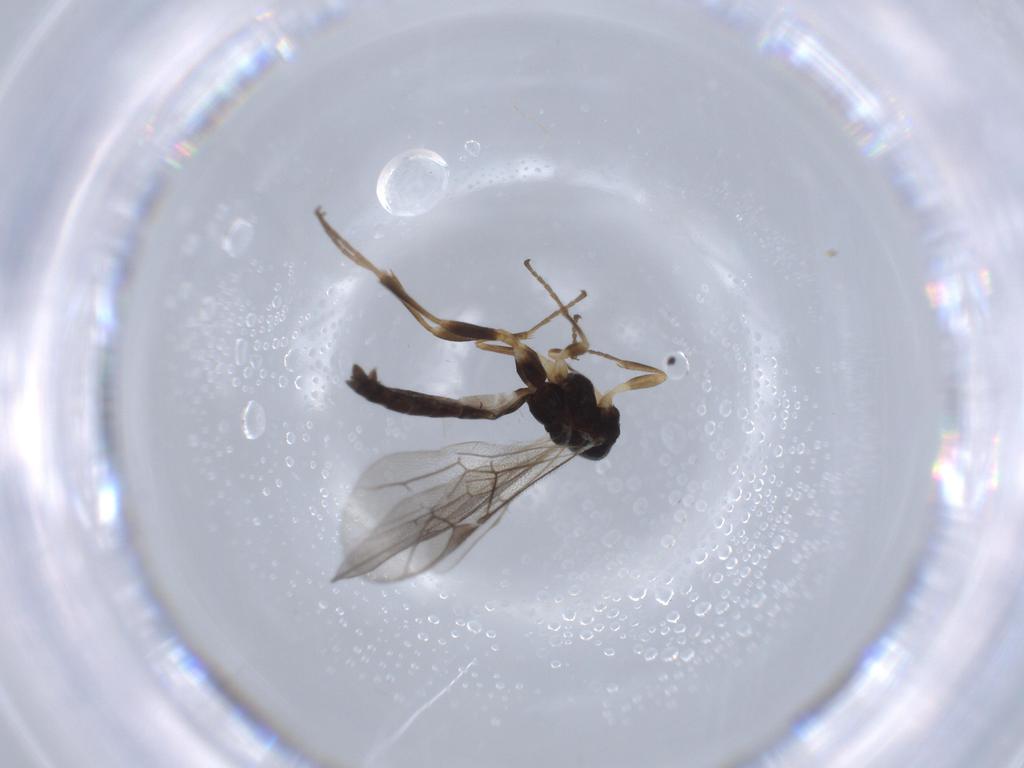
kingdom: Animalia
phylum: Arthropoda
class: Insecta
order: Hymenoptera
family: Ichneumonidae
